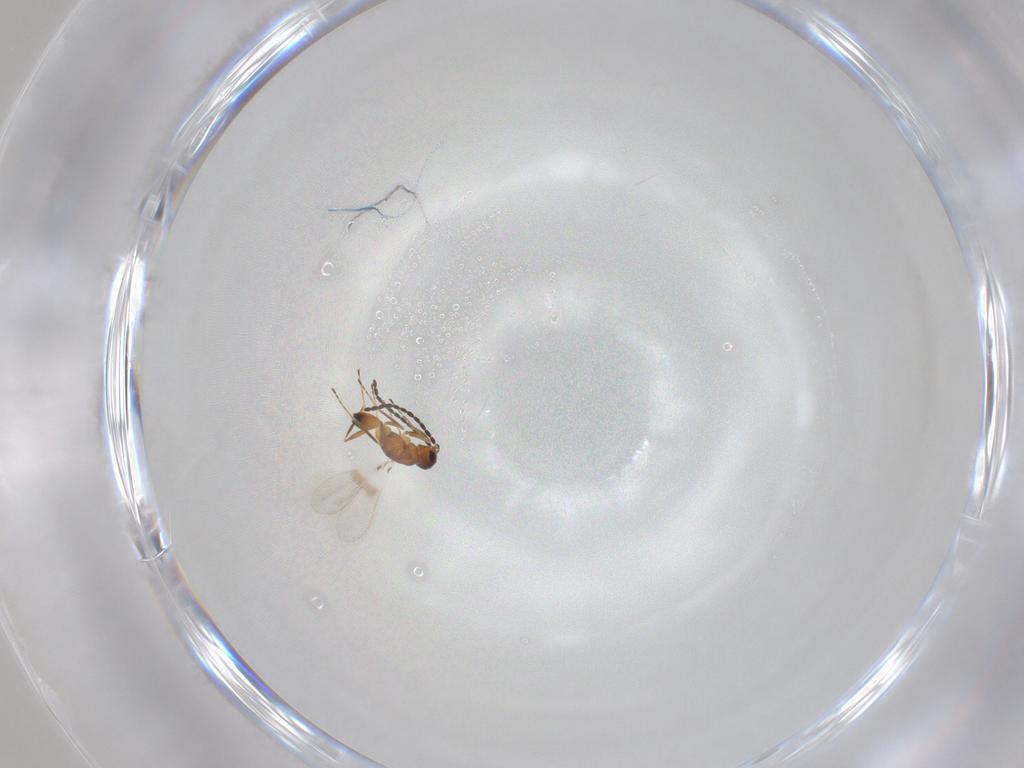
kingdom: Animalia
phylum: Arthropoda
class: Insecta
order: Hymenoptera
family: Mymaridae
